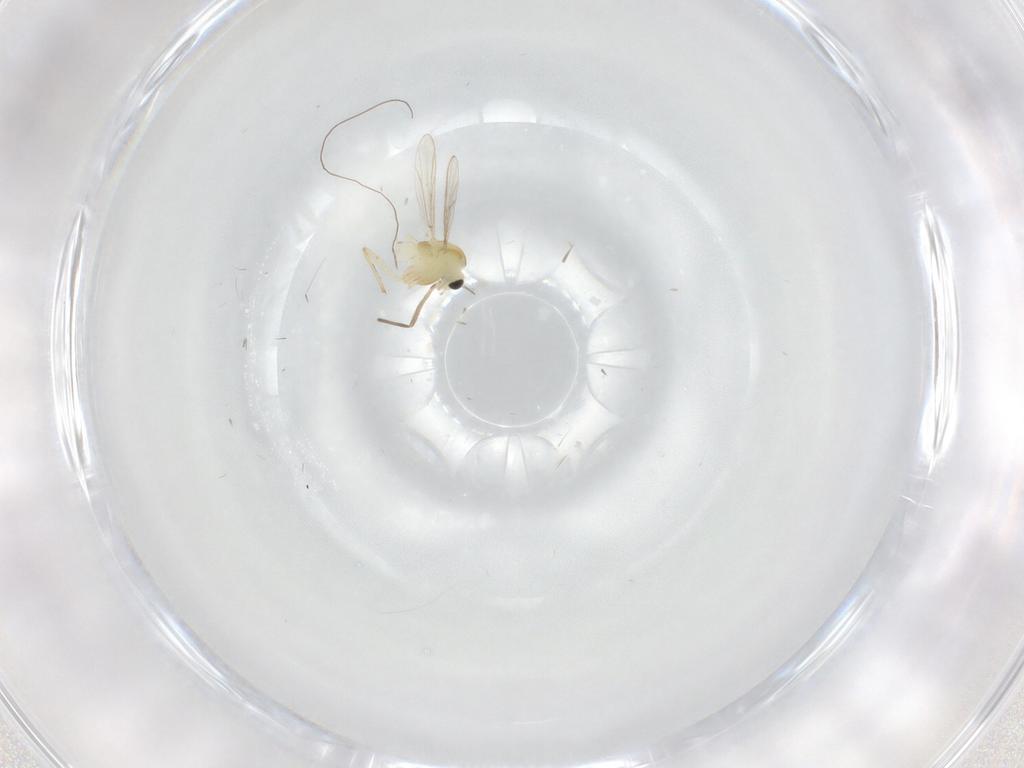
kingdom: Animalia
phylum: Arthropoda
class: Insecta
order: Diptera
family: Chironomidae
